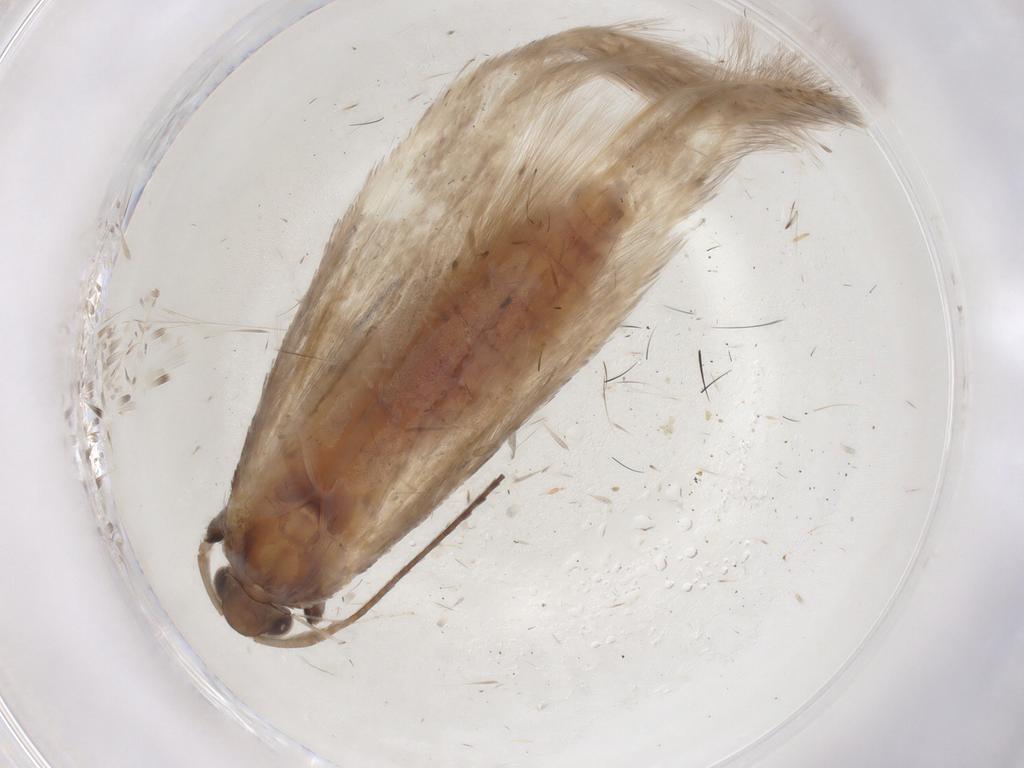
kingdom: Animalia
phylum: Arthropoda
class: Insecta
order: Lepidoptera
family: Coleophoridae
